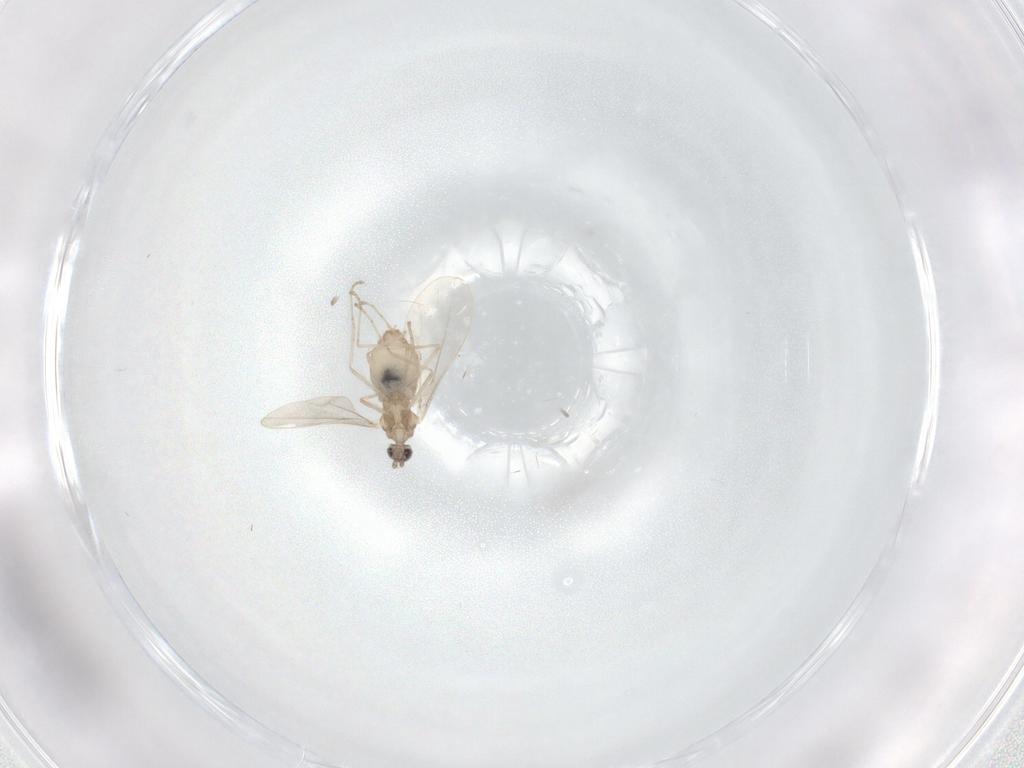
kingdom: Animalia
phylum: Arthropoda
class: Insecta
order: Diptera
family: Cecidomyiidae
